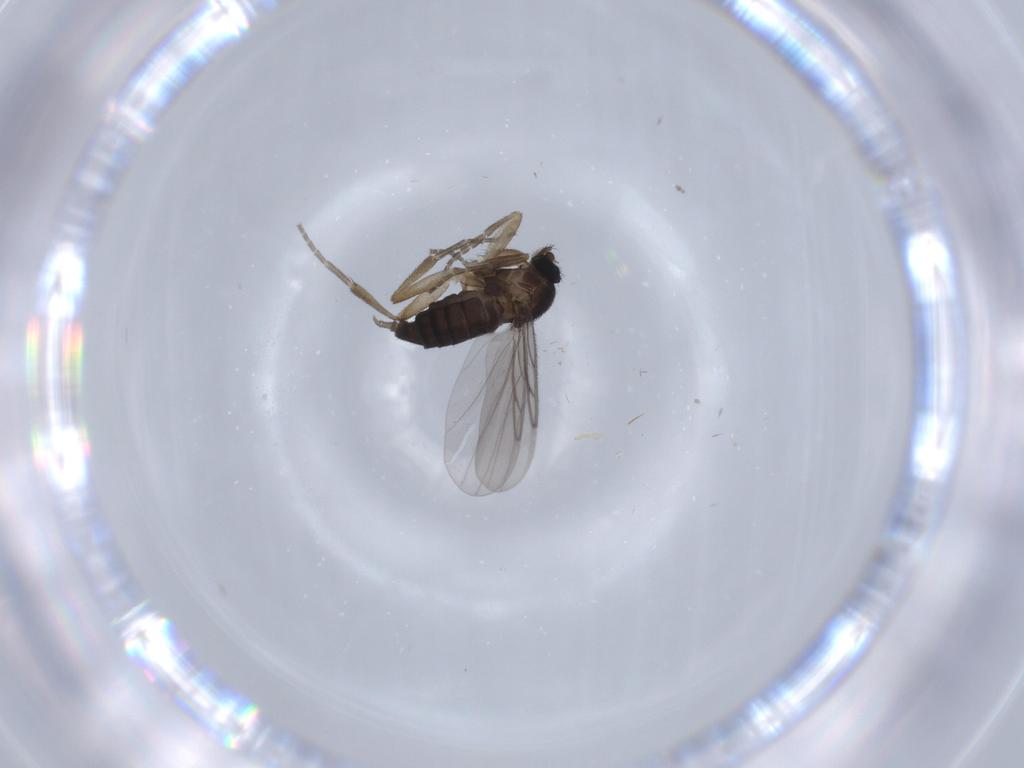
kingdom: Animalia
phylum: Arthropoda
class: Insecta
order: Diptera
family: Phoridae
